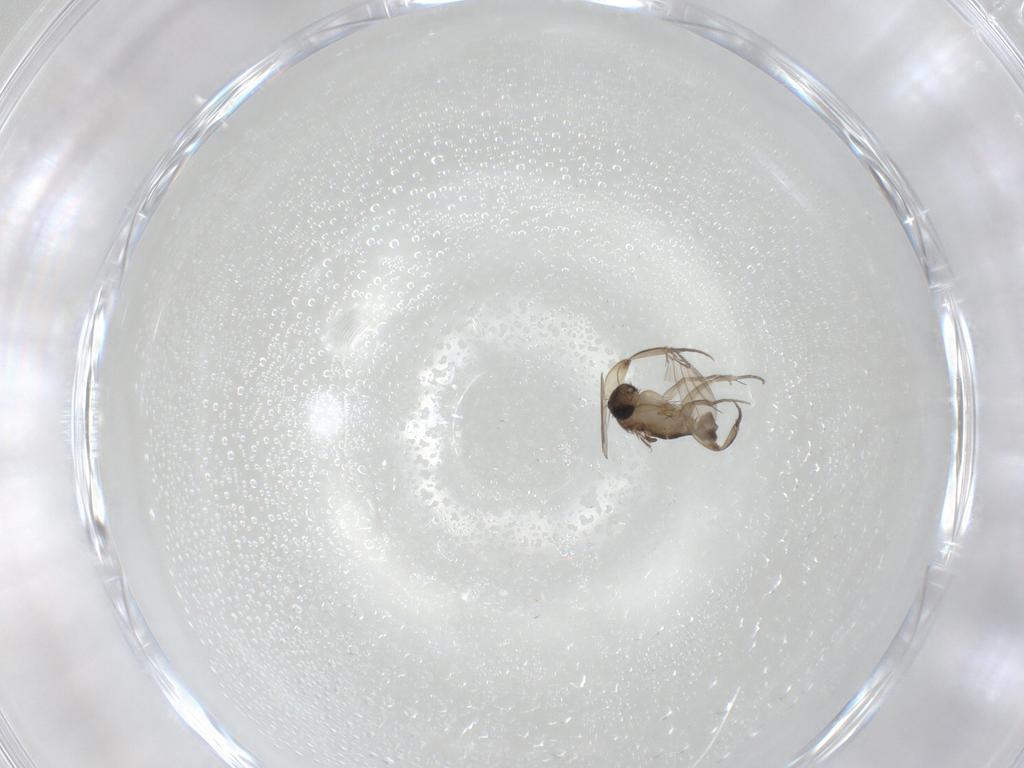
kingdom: Animalia
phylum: Arthropoda
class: Insecta
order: Diptera
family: Phoridae
